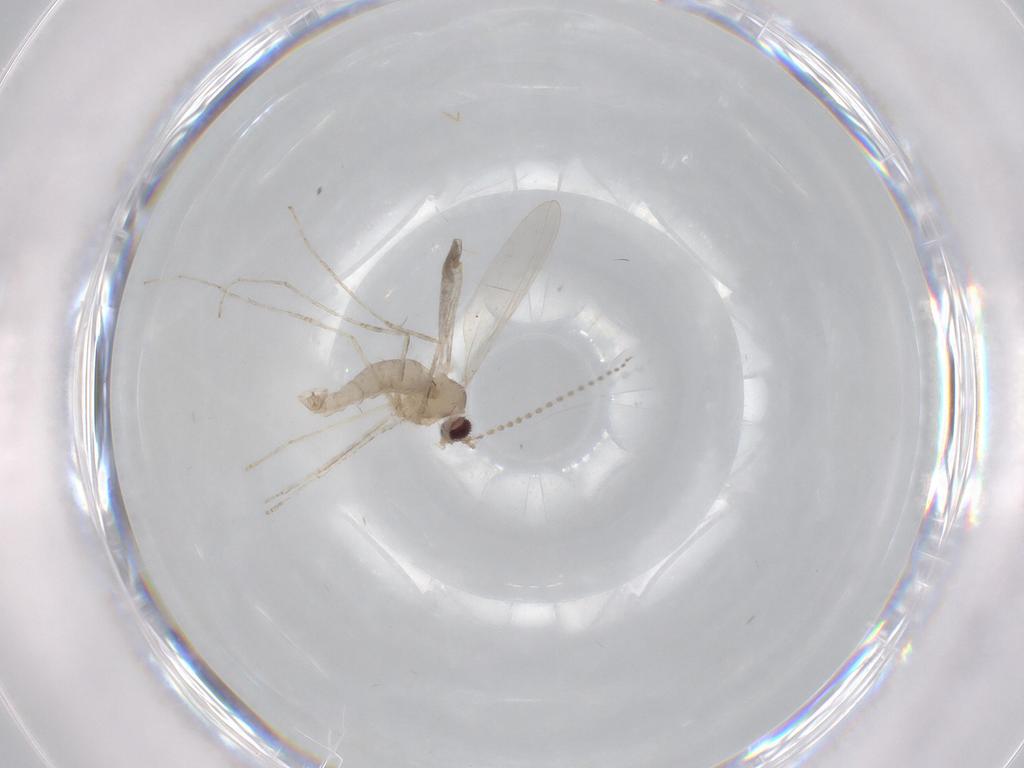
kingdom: Animalia
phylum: Arthropoda
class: Insecta
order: Diptera
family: Cecidomyiidae
